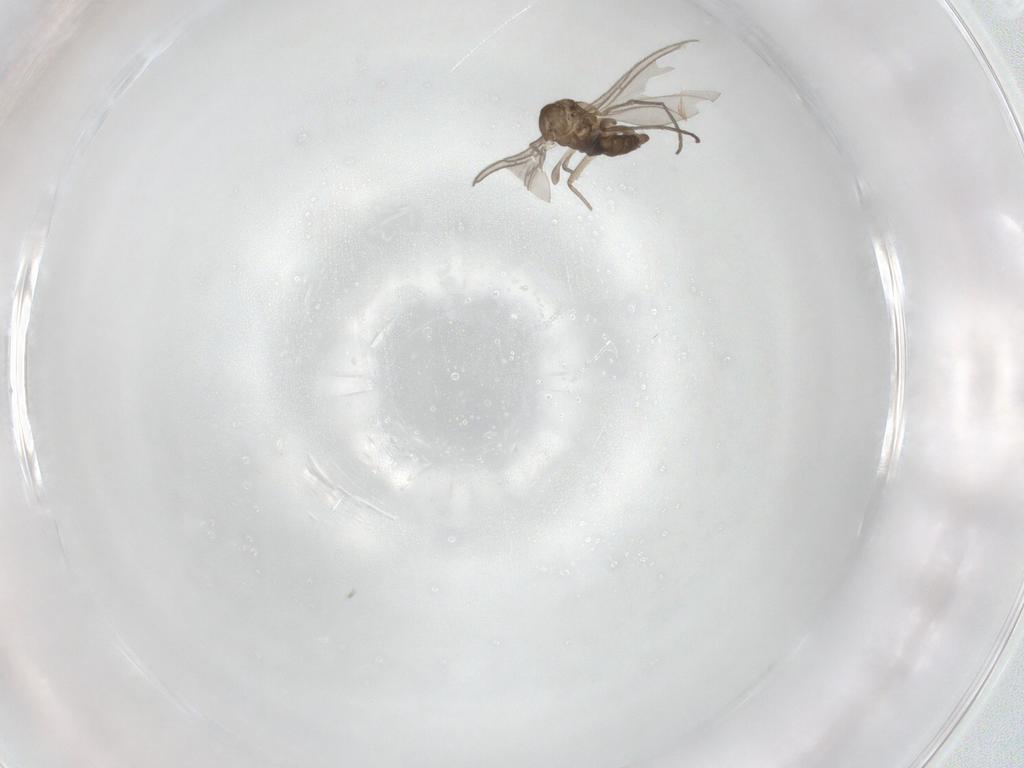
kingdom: Animalia
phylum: Arthropoda
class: Insecta
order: Diptera
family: Sciaridae
